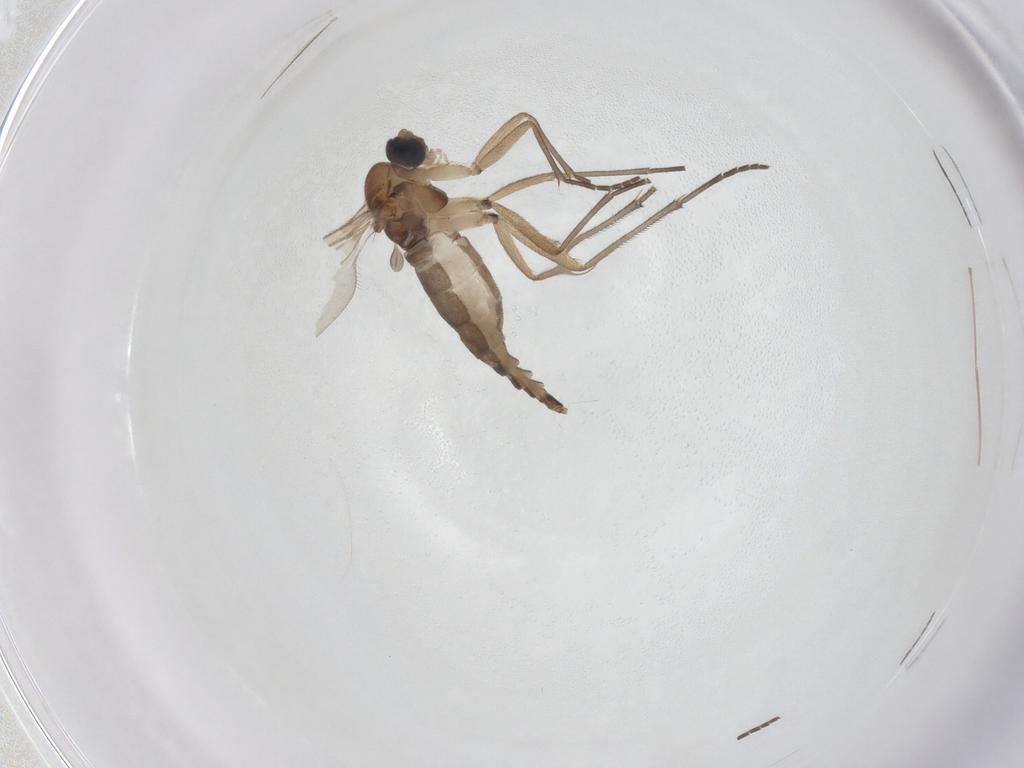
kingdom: Animalia
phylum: Arthropoda
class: Insecta
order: Diptera
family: Sciaridae
